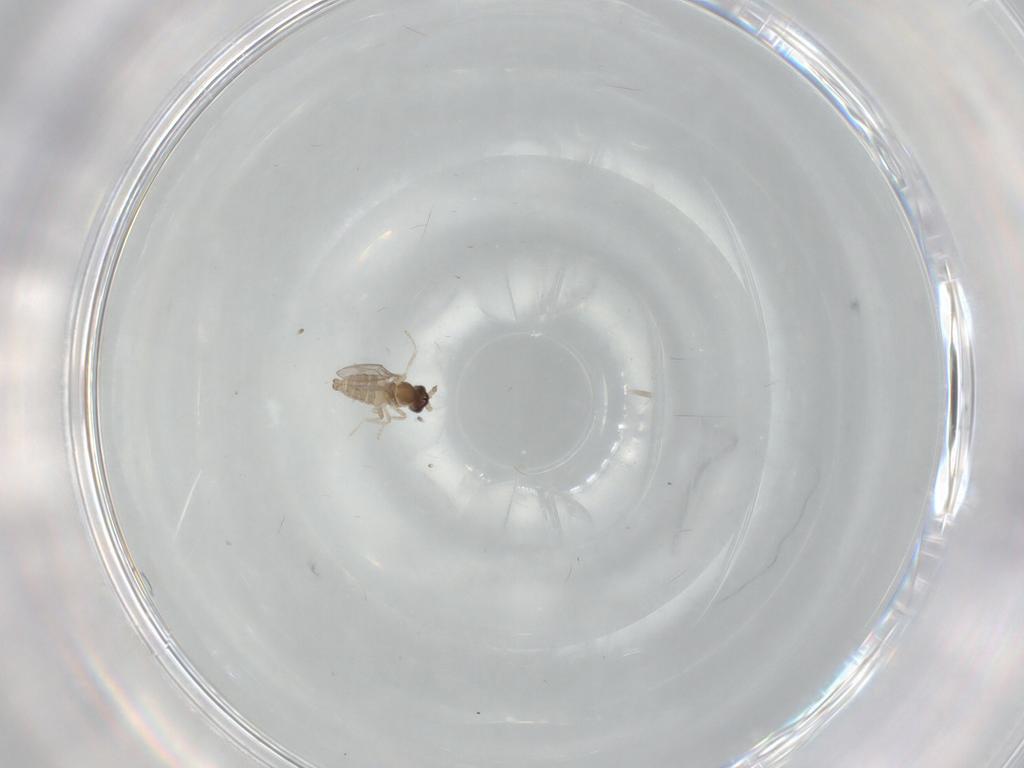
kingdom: Animalia
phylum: Arthropoda
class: Insecta
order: Diptera
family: Cecidomyiidae
